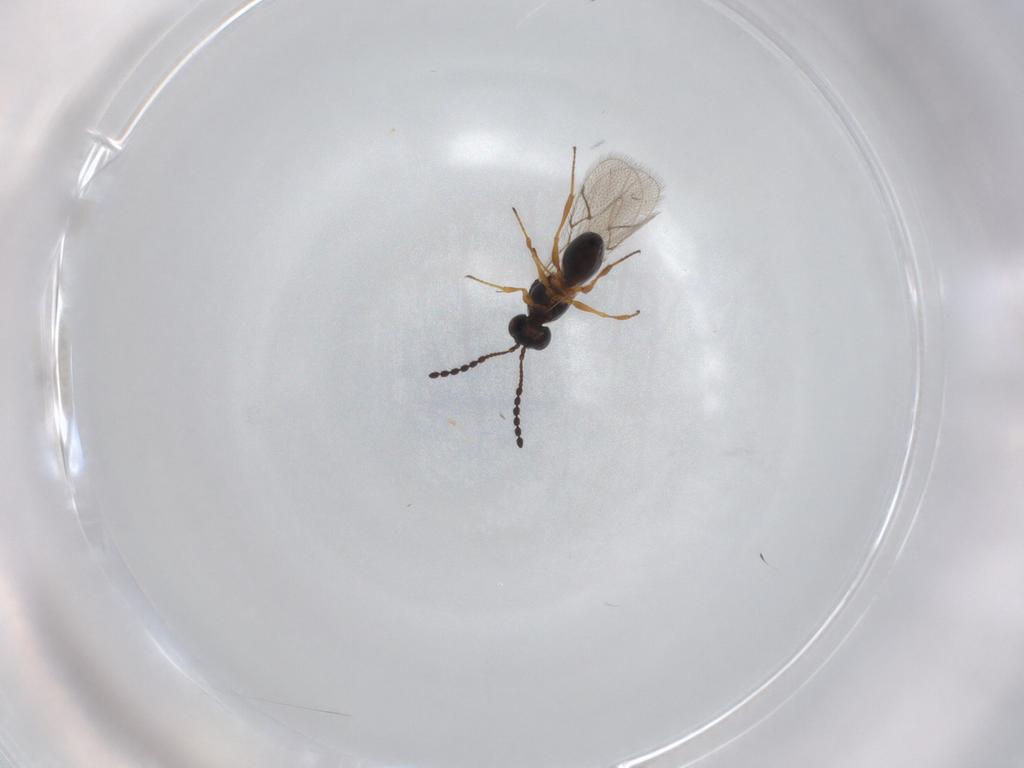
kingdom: Animalia
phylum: Arthropoda
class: Insecta
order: Hymenoptera
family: Figitidae
